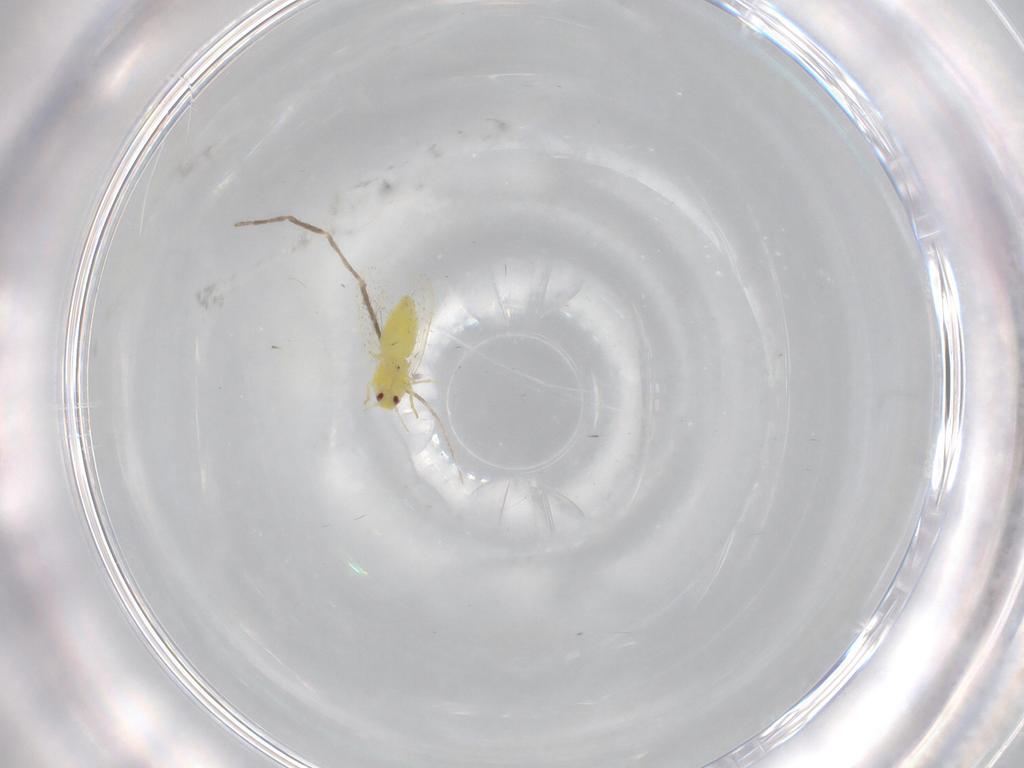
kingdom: Animalia
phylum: Arthropoda
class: Insecta
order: Hemiptera
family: Aleyrodidae
